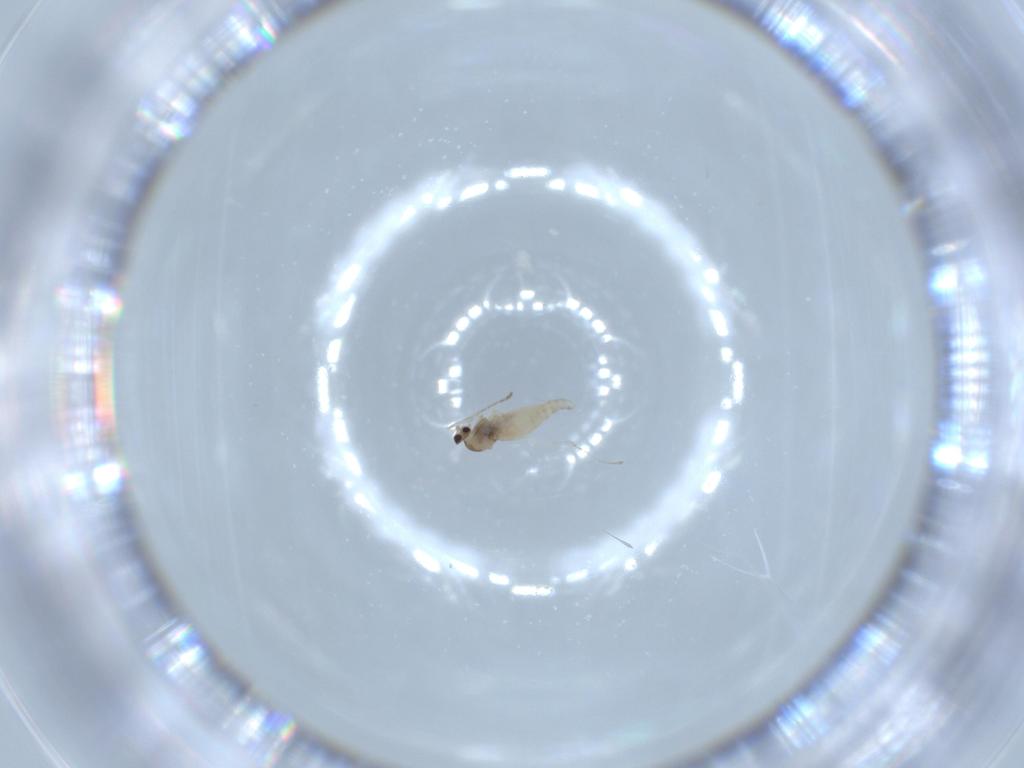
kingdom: Animalia
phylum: Arthropoda
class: Insecta
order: Diptera
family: Cecidomyiidae
